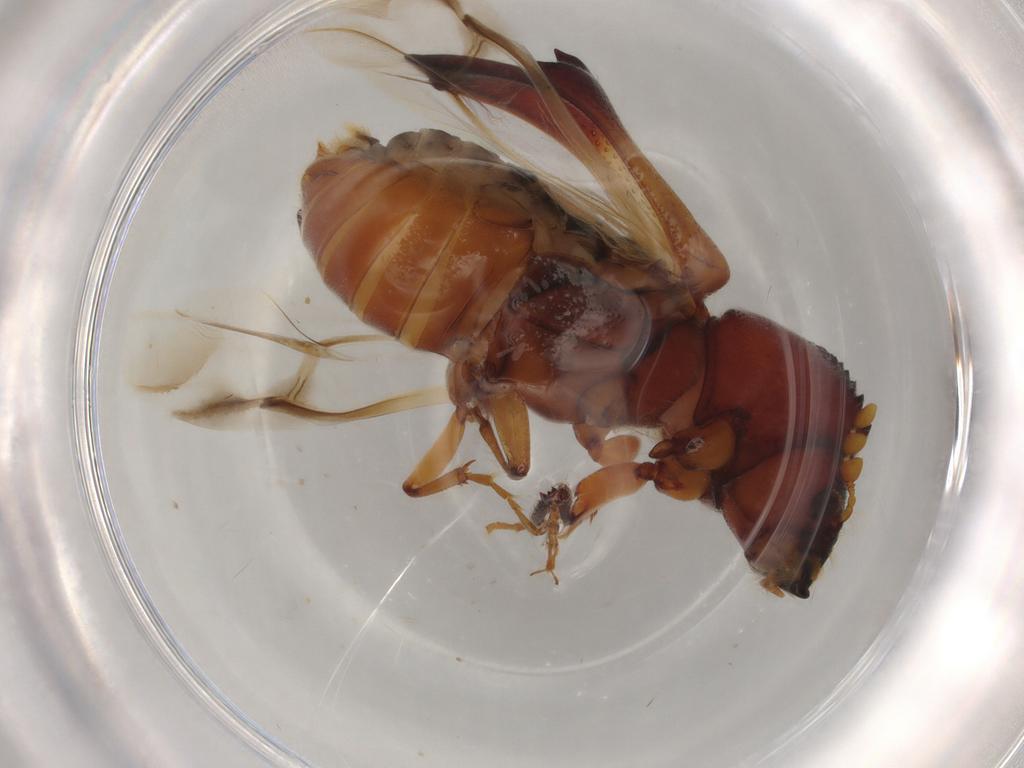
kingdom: Animalia
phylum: Arthropoda
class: Insecta
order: Coleoptera
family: Bostrichidae
